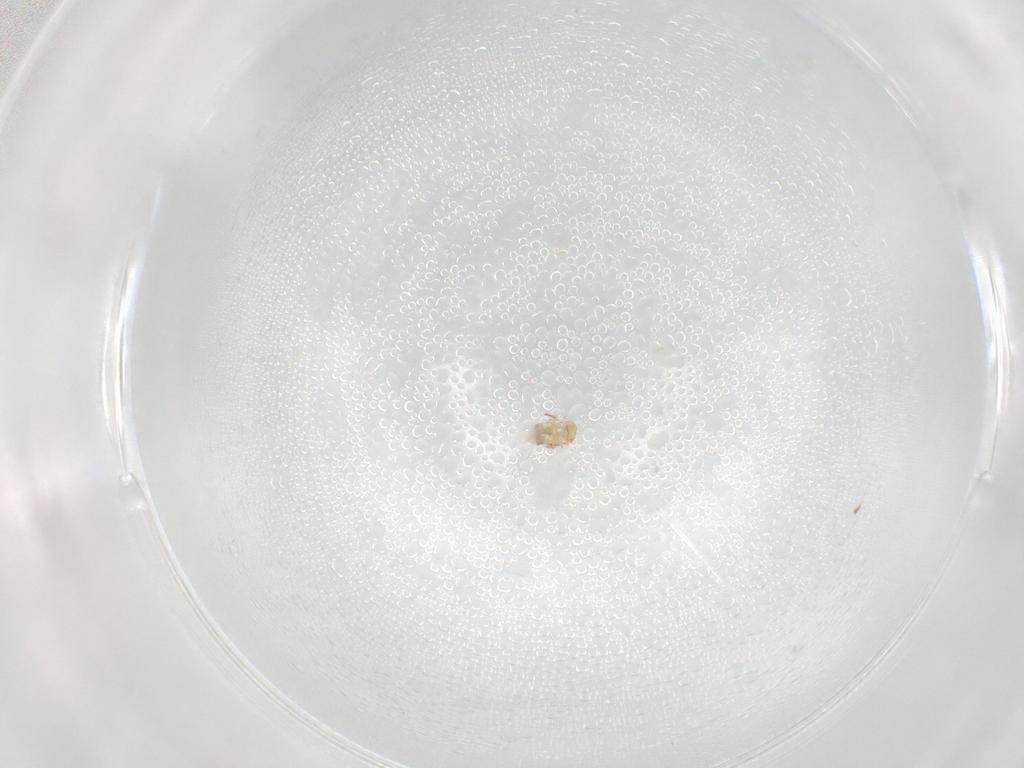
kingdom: Animalia
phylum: Arthropoda
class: Collembola
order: Symphypleona
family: Bourletiellidae
